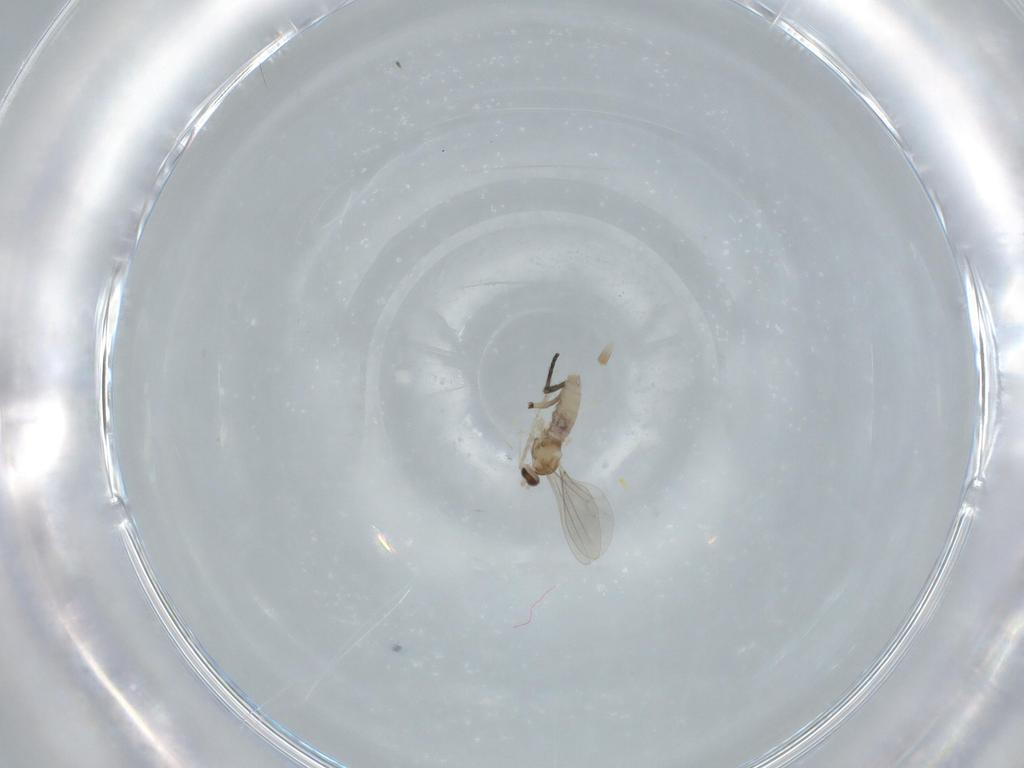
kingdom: Animalia
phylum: Arthropoda
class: Insecta
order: Diptera
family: Cecidomyiidae
